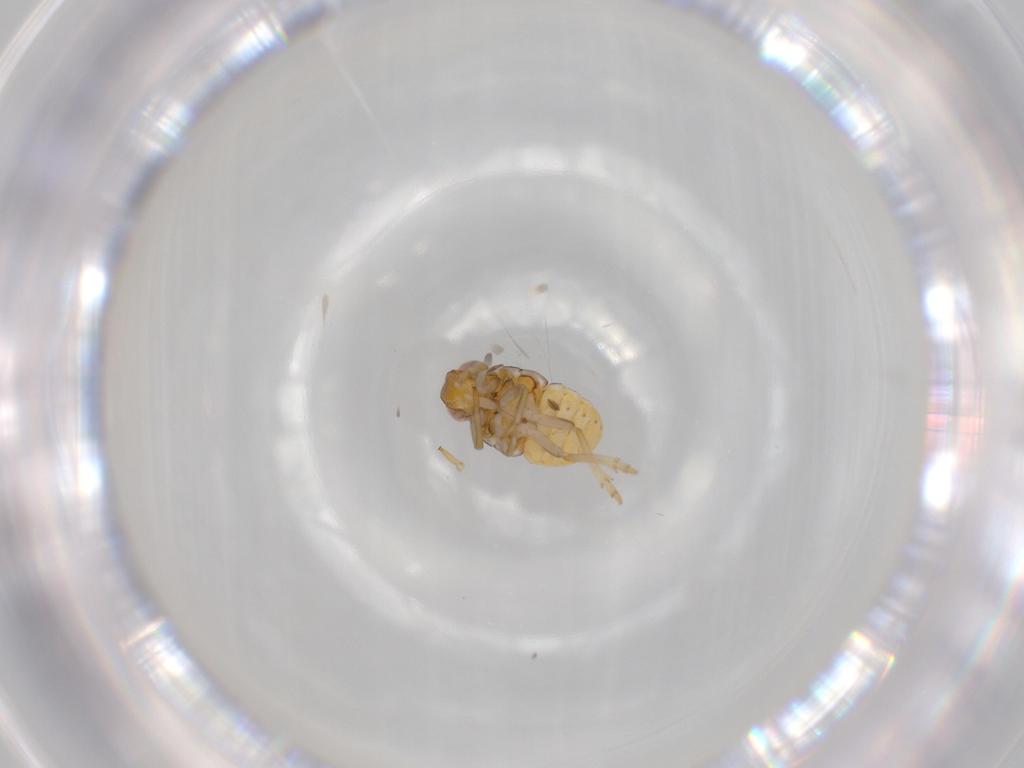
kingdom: Animalia
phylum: Arthropoda
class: Insecta
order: Hemiptera
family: Issidae
